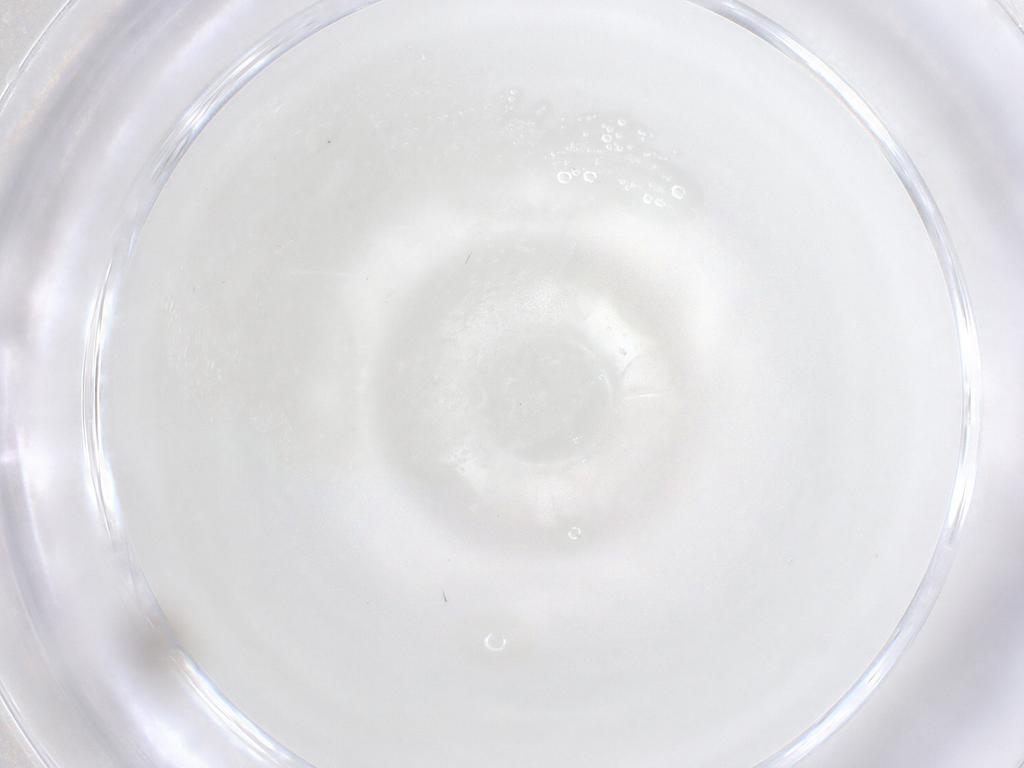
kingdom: Animalia
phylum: Arthropoda
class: Insecta
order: Diptera
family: Psychodidae
